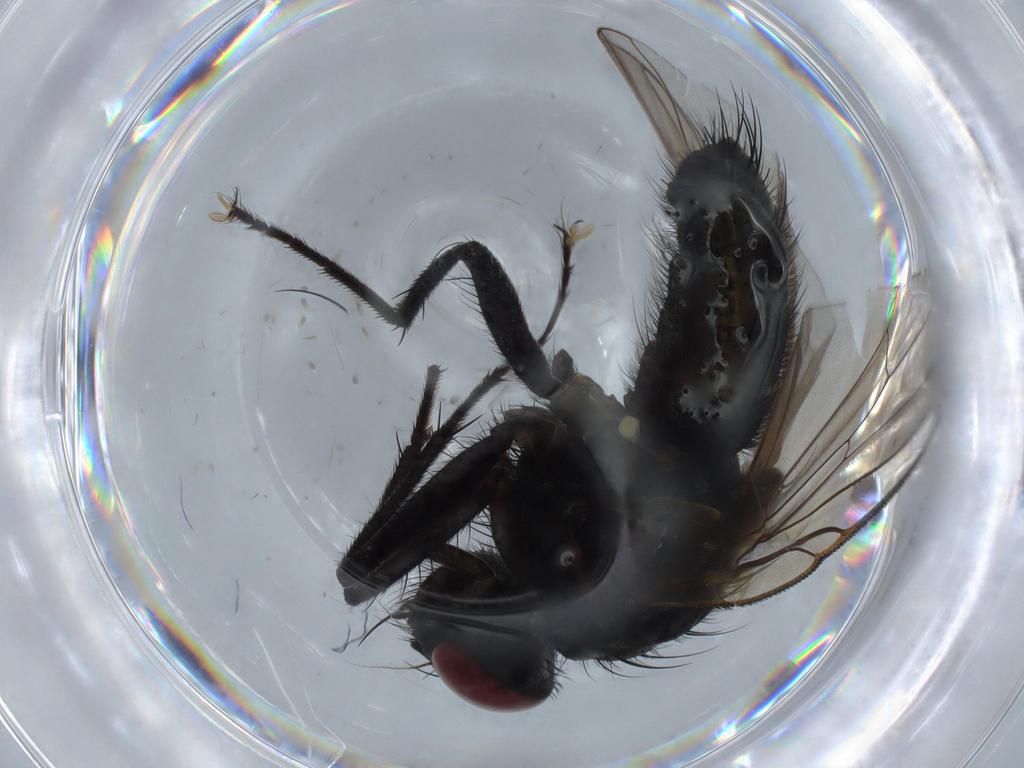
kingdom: Animalia
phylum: Arthropoda
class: Insecta
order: Diptera
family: Muscidae
